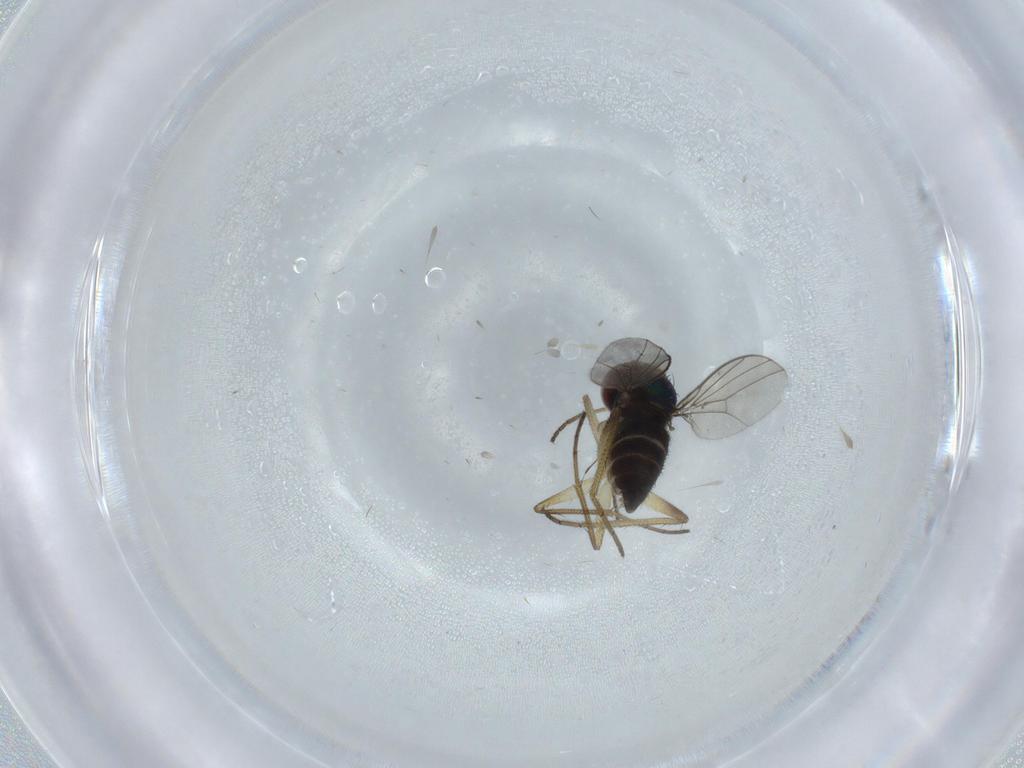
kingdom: Animalia
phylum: Arthropoda
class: Insecta
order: Diptera
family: Dolichopodidae
